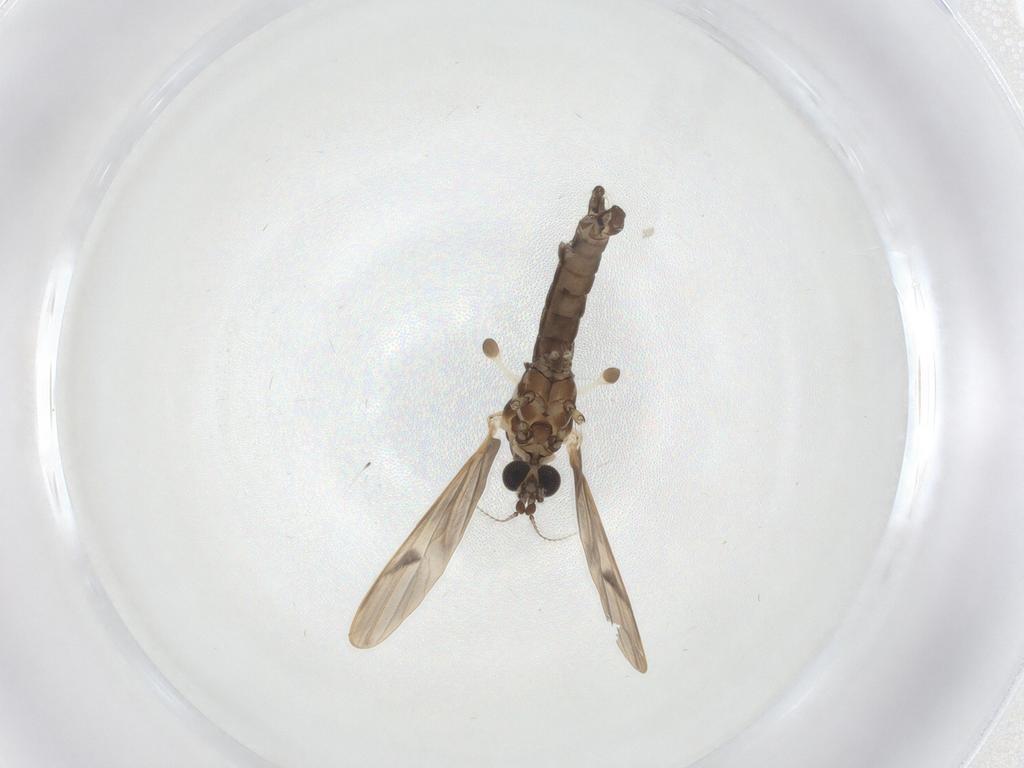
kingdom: Animalia
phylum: Arthropoda
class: Insecta
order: Diptera
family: Limoniidae
